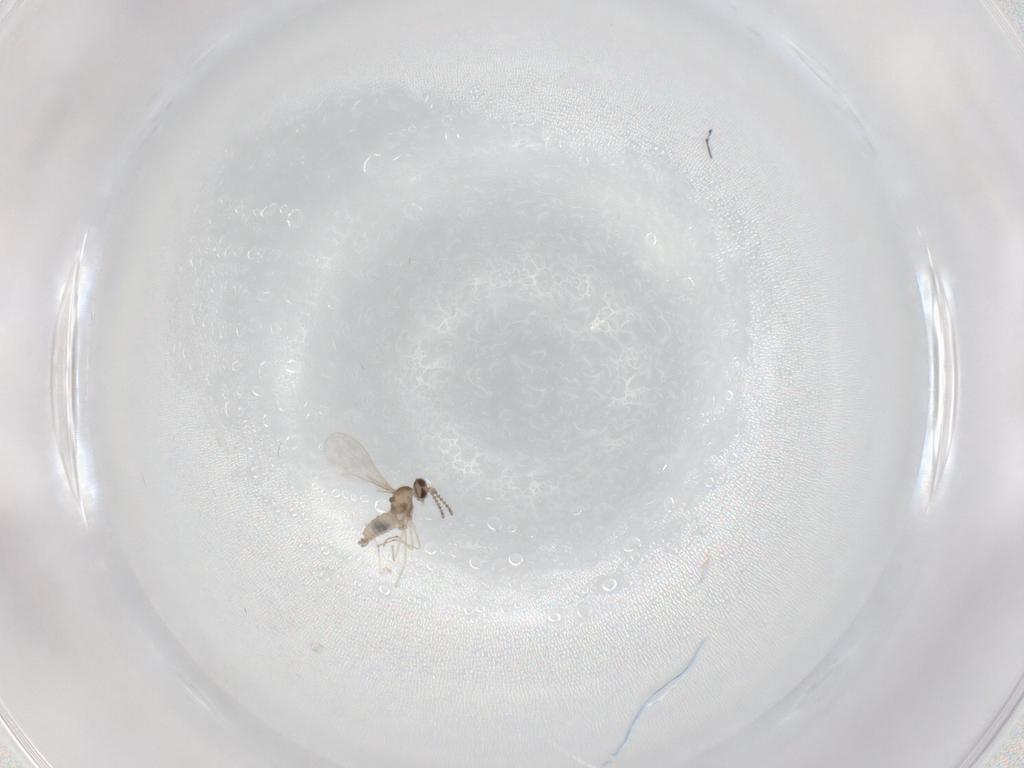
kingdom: Animalia
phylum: Arthropoda
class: Insecta
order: Diptera
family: Cecidomyiidae
